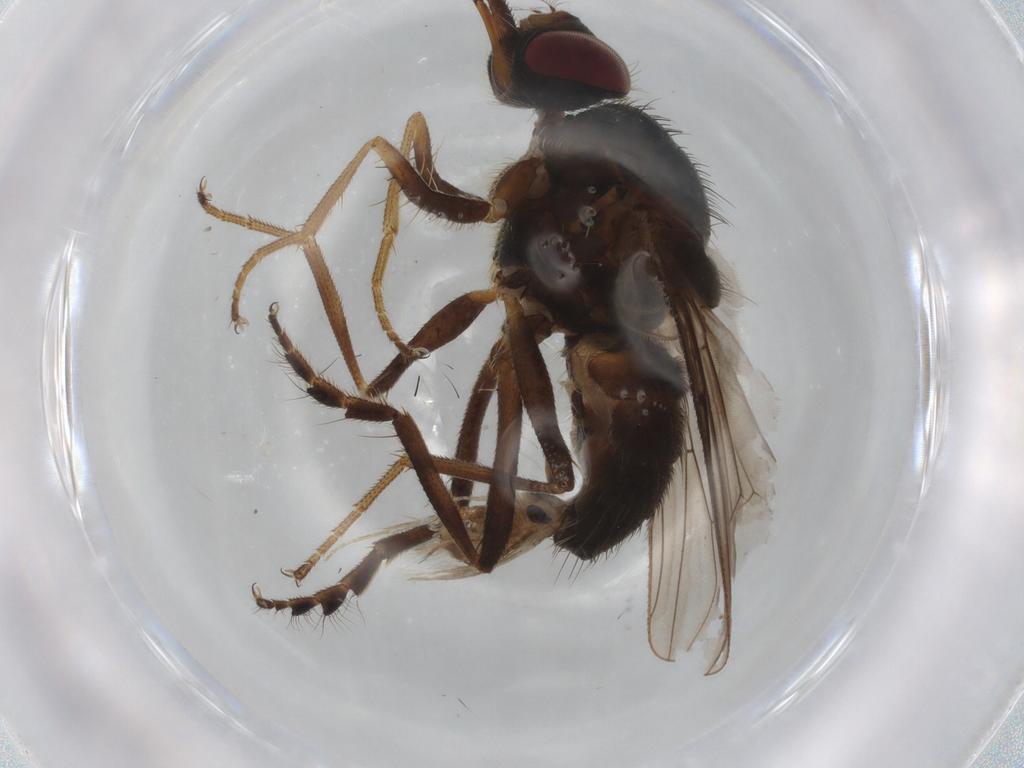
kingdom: Animalia
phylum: Arthropoda
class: Insecta
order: Diptera
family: Tachinidae
